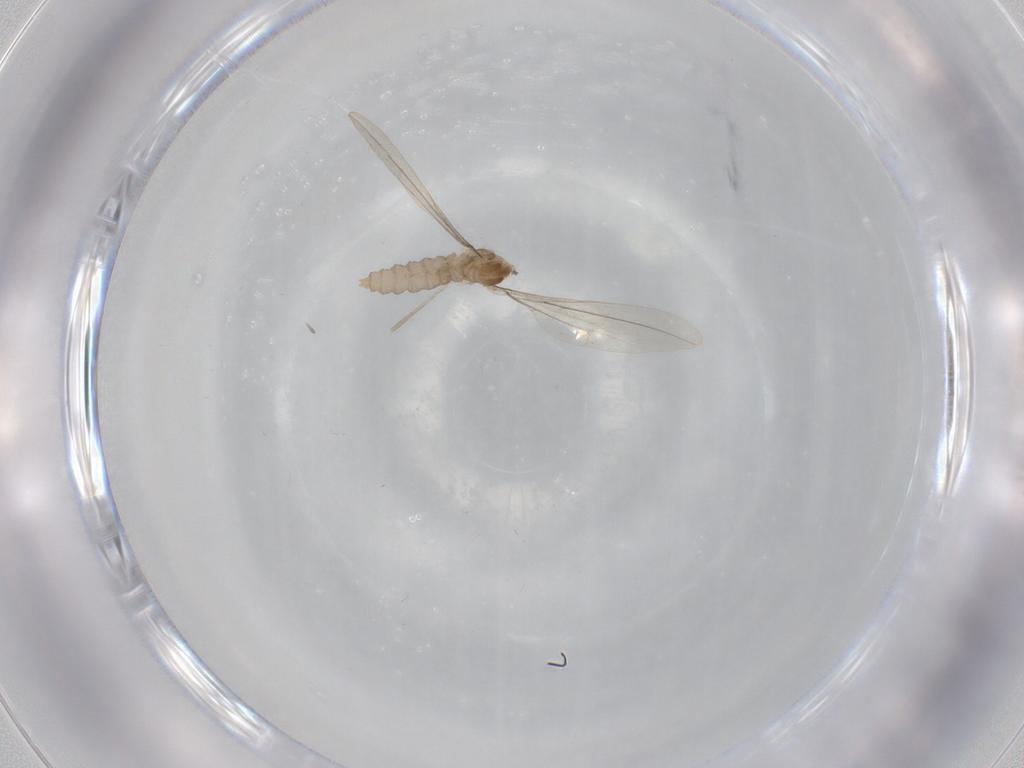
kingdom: Animalia
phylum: Arthropoda
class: Insecta
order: Diptera
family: Cecidomyiidae
